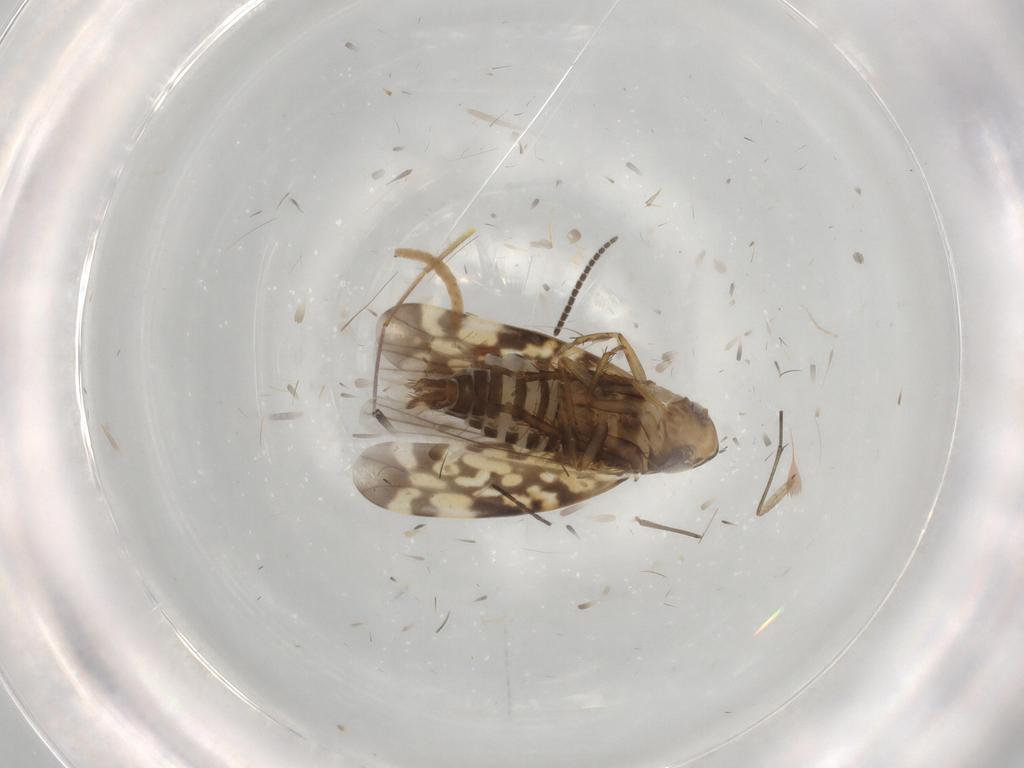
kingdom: Animalia
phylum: Arthropoda
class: Insecta
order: Hemiptera
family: Cicadellidae
